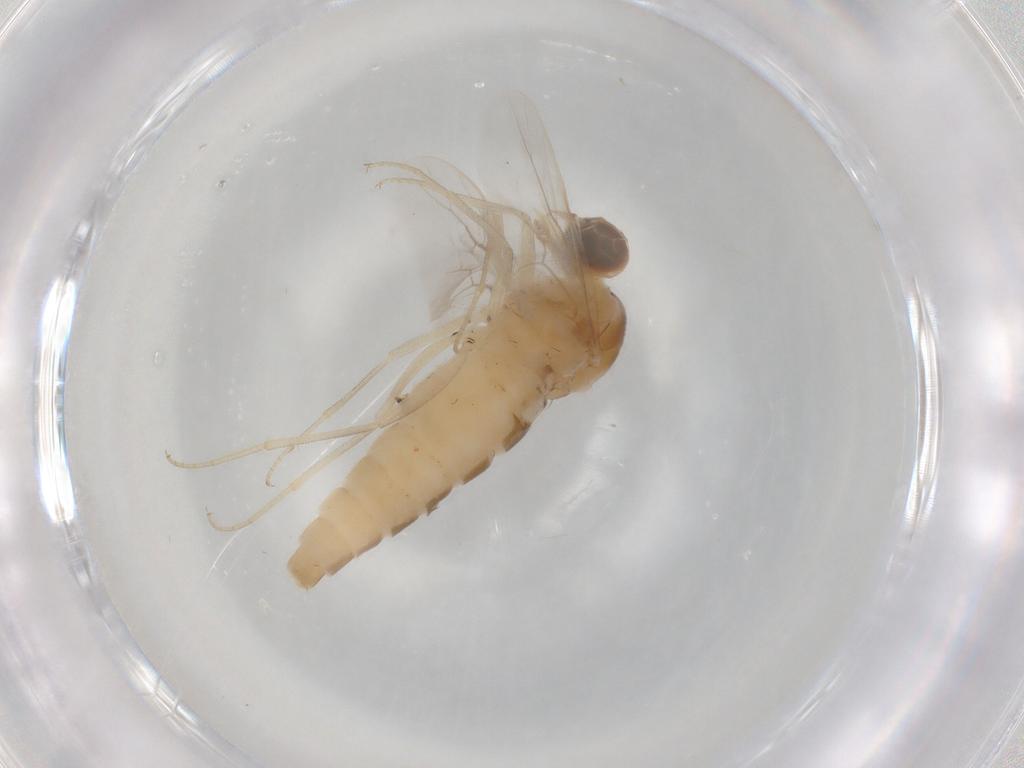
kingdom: Animalia
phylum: Arthropoda
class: Insecta
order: Diptera
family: Scenopinidae
